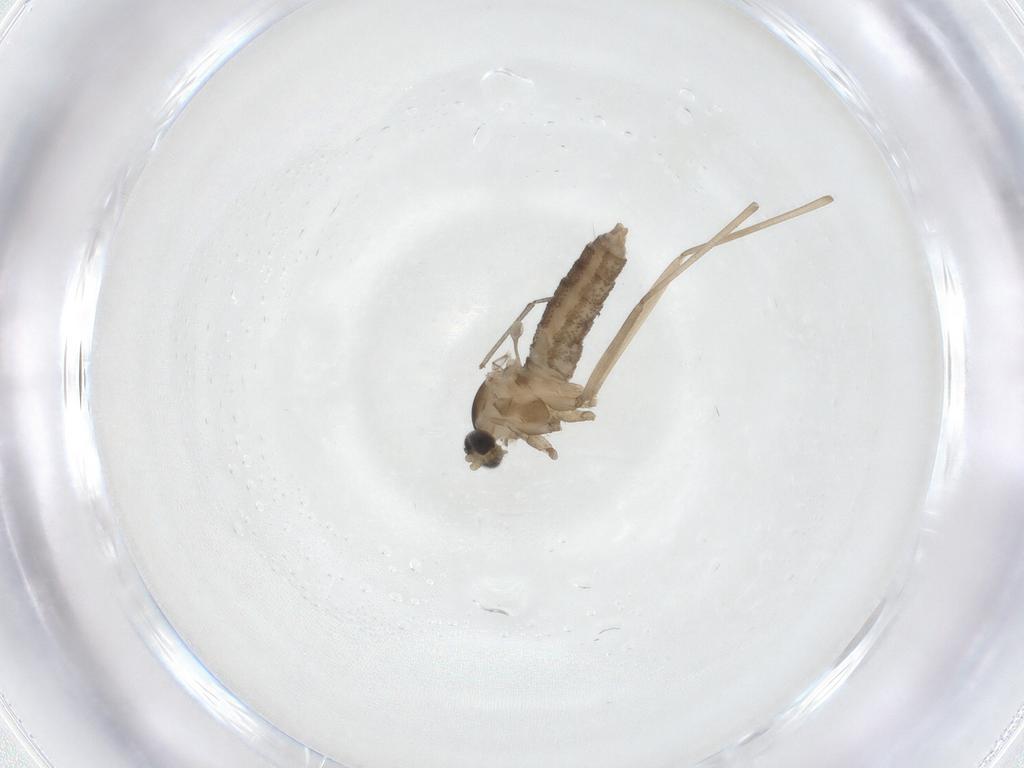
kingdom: Animalia
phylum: Arthropoda
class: Insecta
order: Diptera
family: Cecidomyiidae
